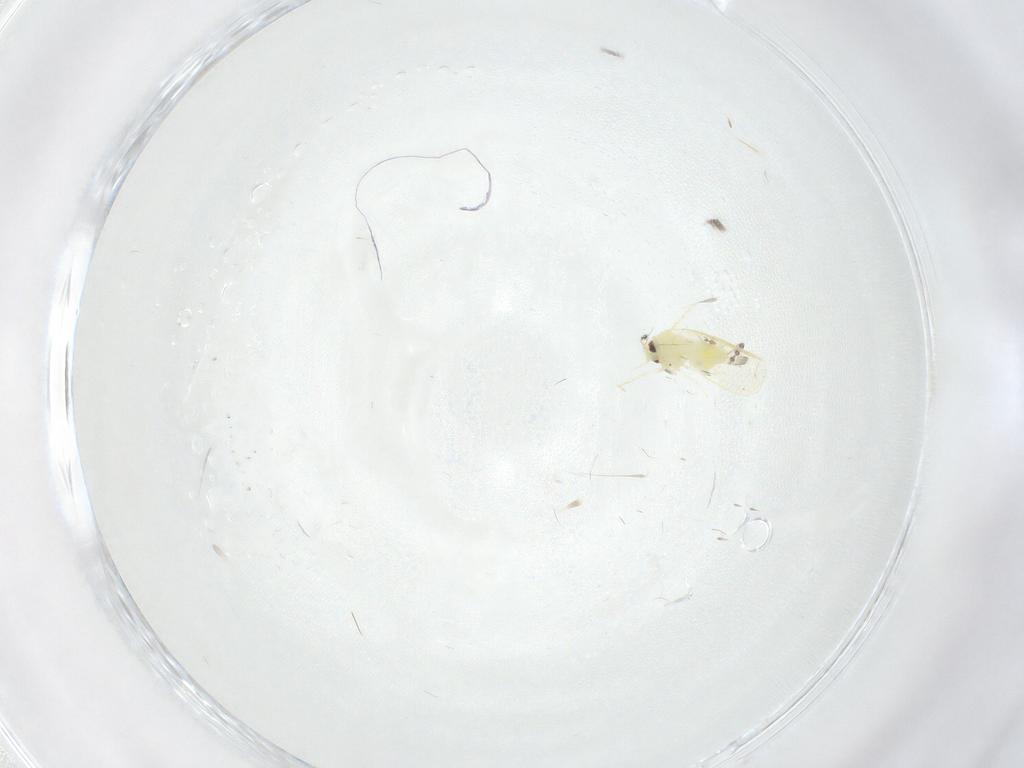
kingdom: Animalia
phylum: Arthropoda
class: Insecta
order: Hemiptera
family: Aleyrodidae
